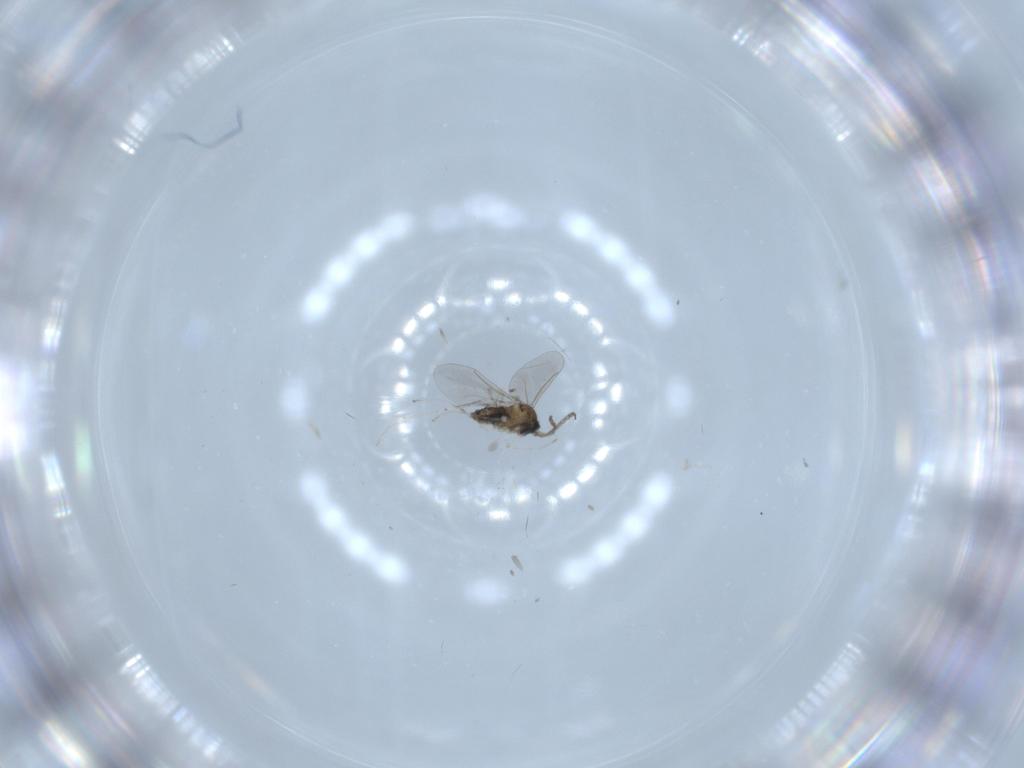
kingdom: Animalia
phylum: Arthropoda
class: Insecta
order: Diptera
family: Cecidomyiidae
